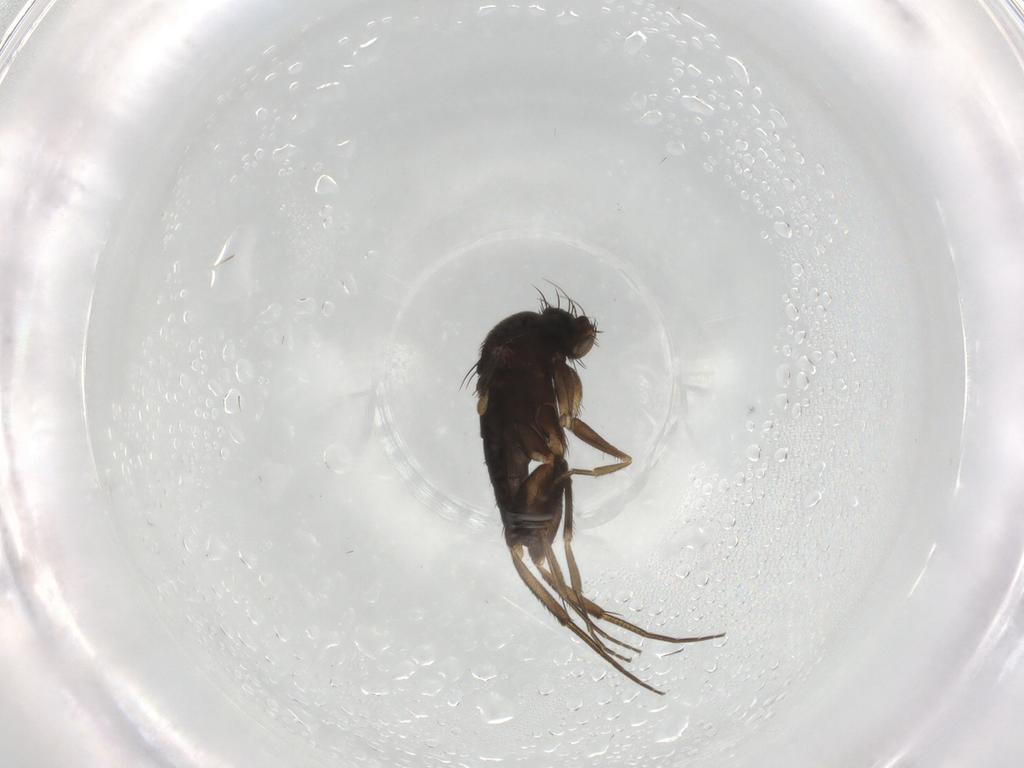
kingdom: Animalia
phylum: Arthropoda
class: Insecta
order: Diptera
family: Phoridae
